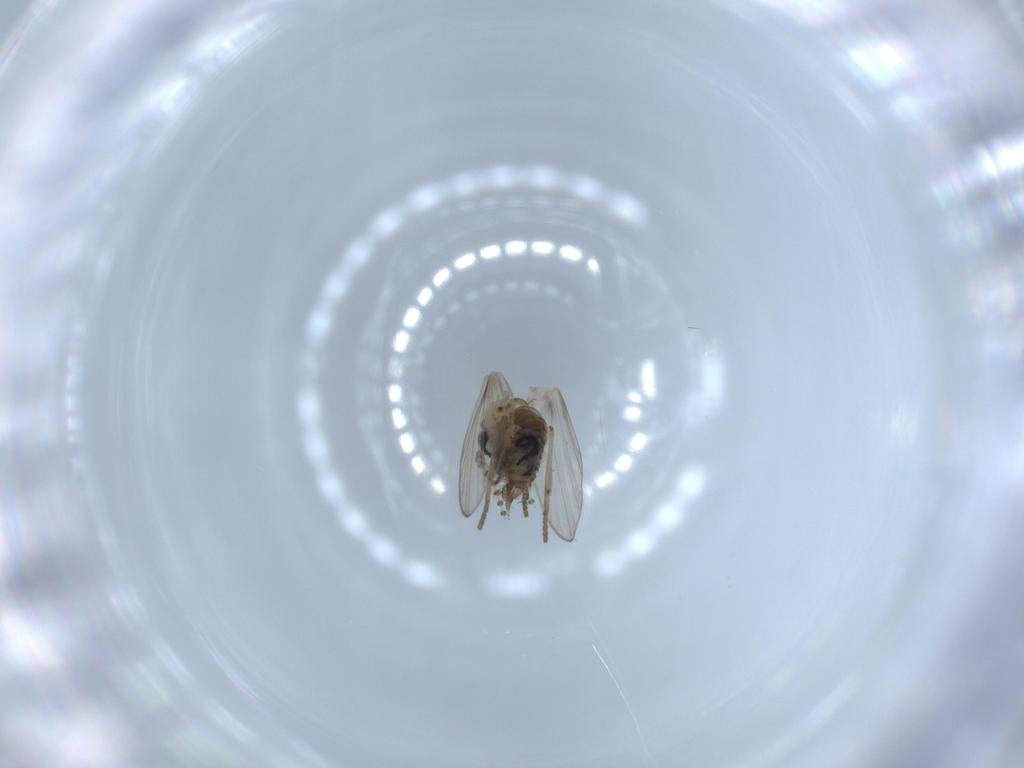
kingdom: Animalia
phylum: Arthropoda
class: Insecta
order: Diptera
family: Psychodidae
